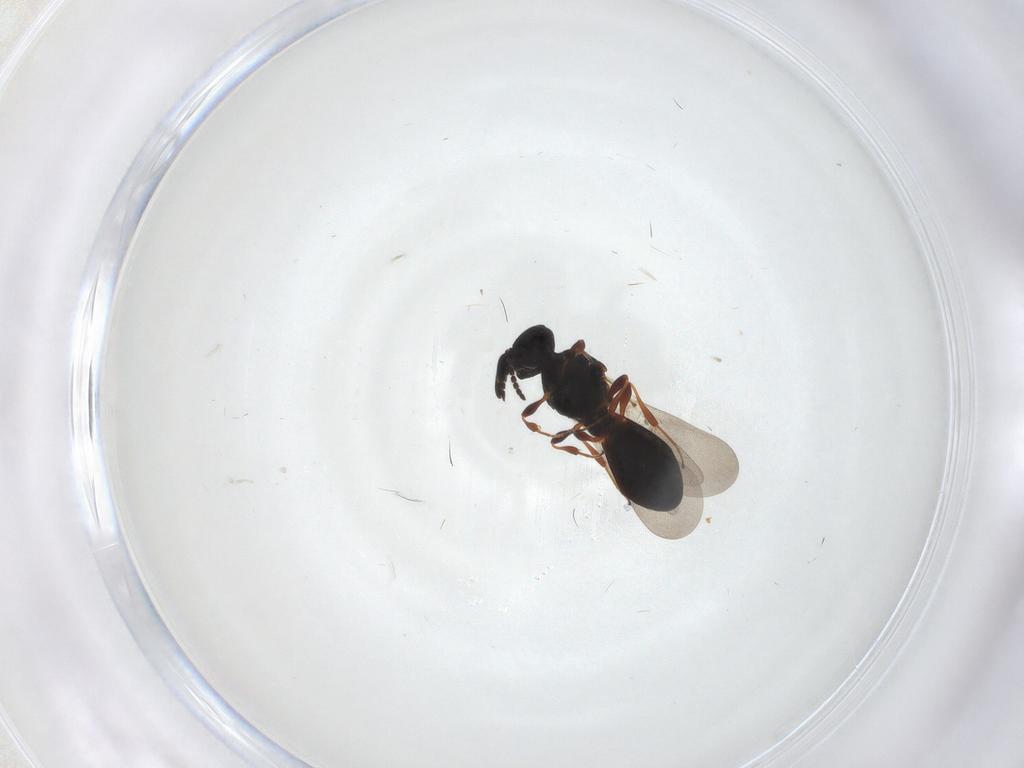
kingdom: Animalia
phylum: Arthropoda
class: Insecta
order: Hymenoptera
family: Platygastridae
